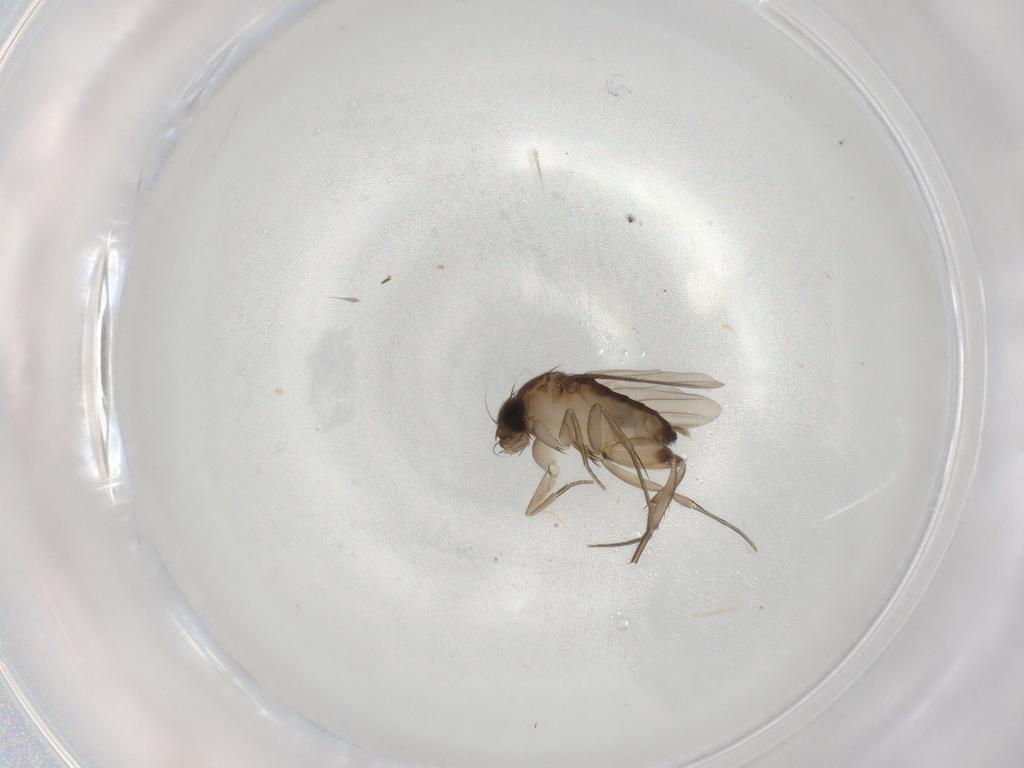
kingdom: Animalia
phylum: Arthropoda
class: Insecta
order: Diptera
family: Phoridae
